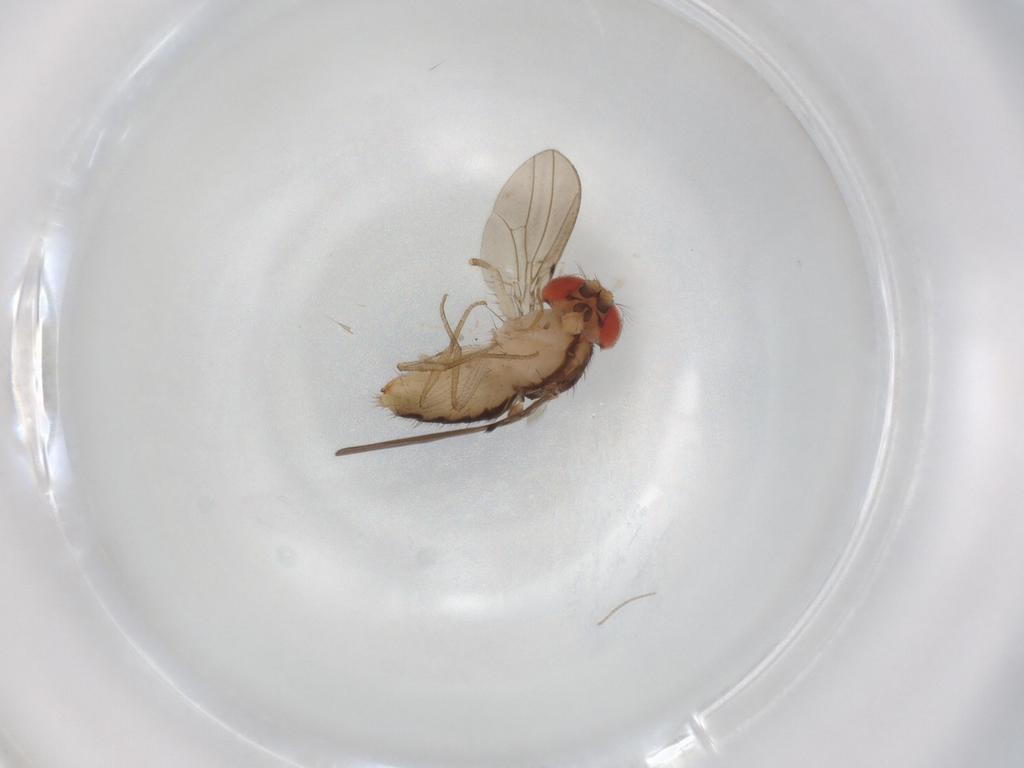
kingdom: Animalia
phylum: Arthropoda
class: Insecta
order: Diptera
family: Drosophilidae
